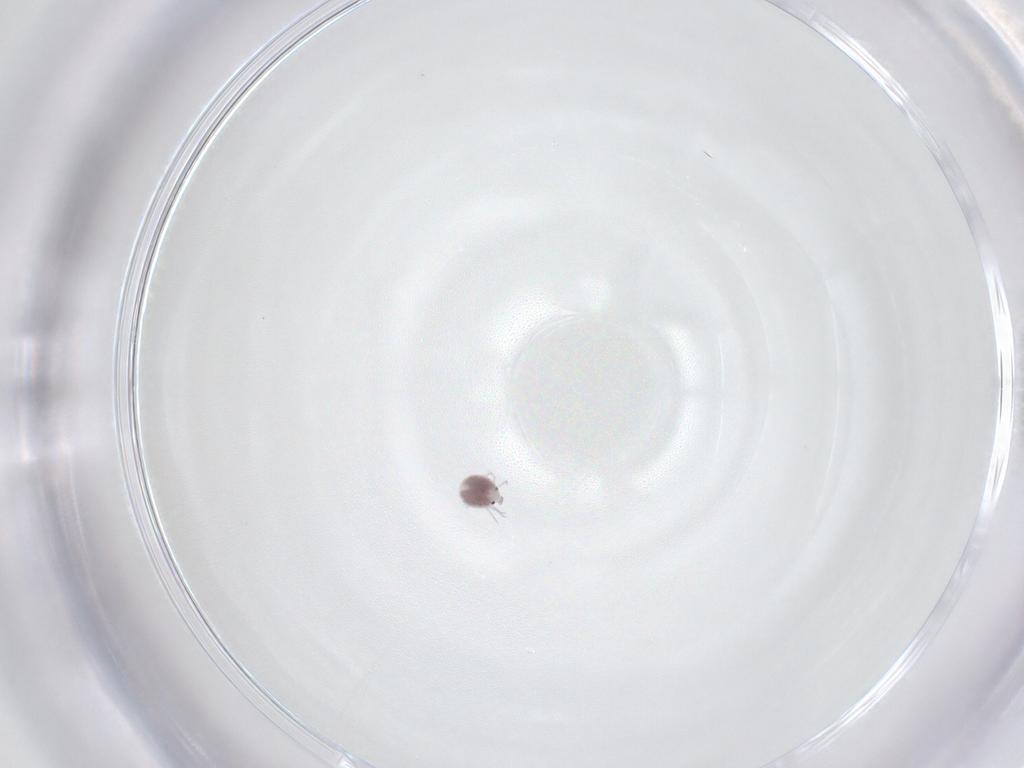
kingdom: Animalia
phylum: Arthropoda
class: Arachnida
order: Trombidiformes
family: Pionidae
